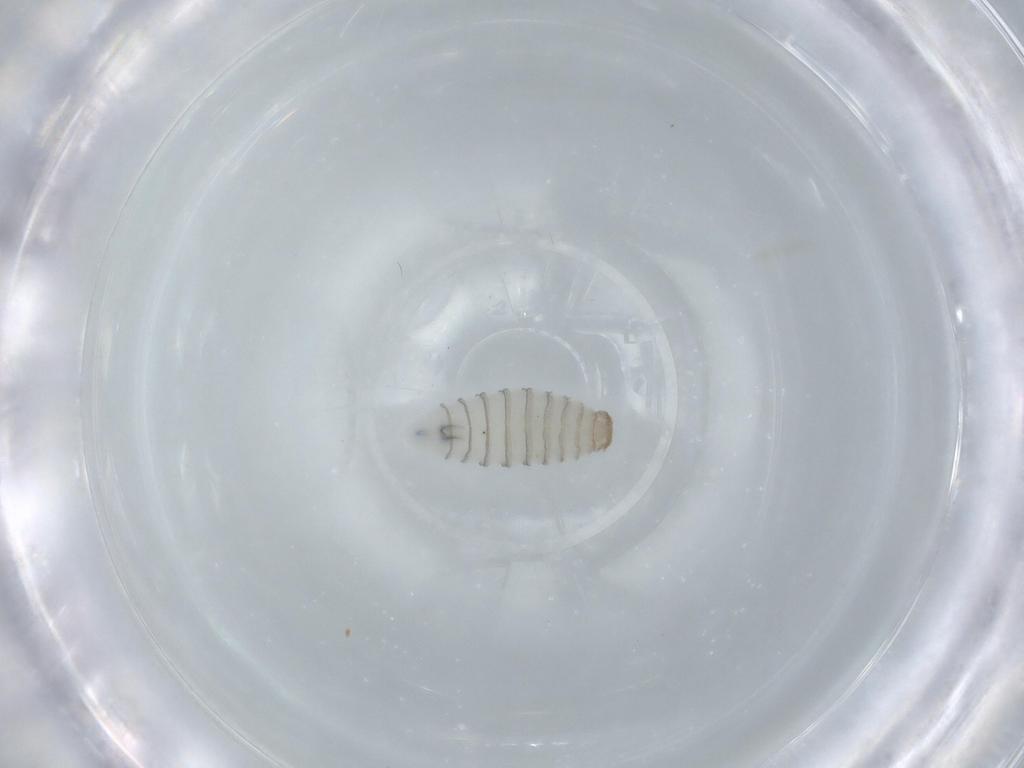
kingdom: Animalia
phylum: Arthropoda
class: Insecta
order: Diptera
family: Sarcophagidae
